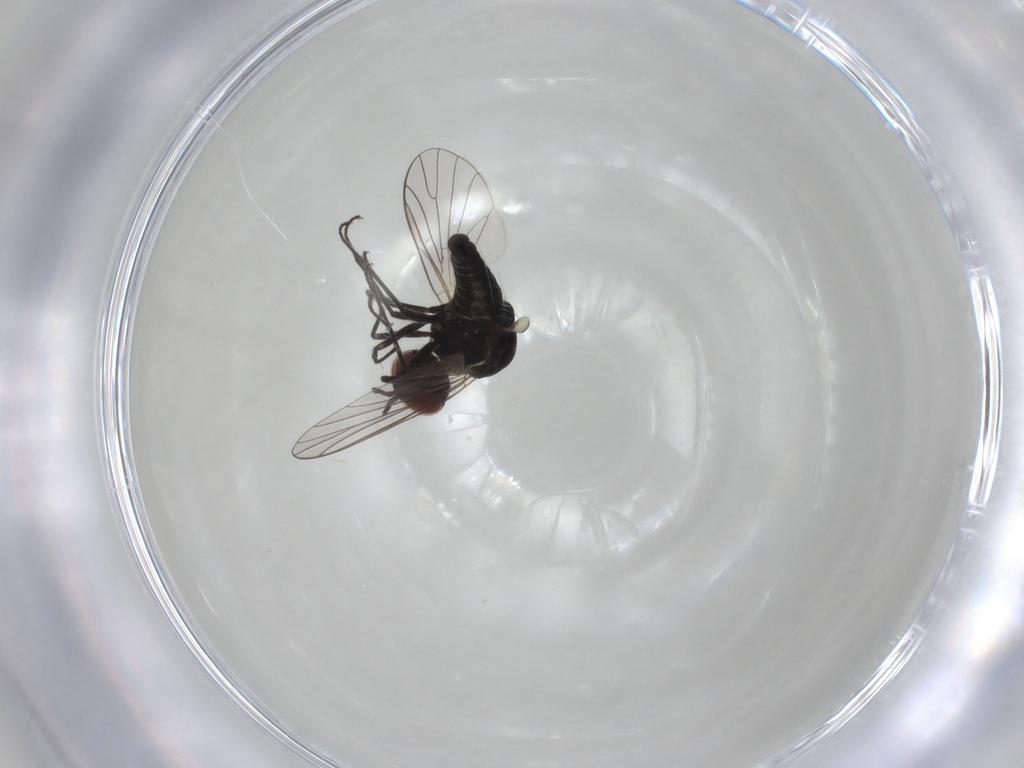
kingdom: Animalia
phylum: Arthropoda
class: Insecta
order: Diptera
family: Bombyliidae
